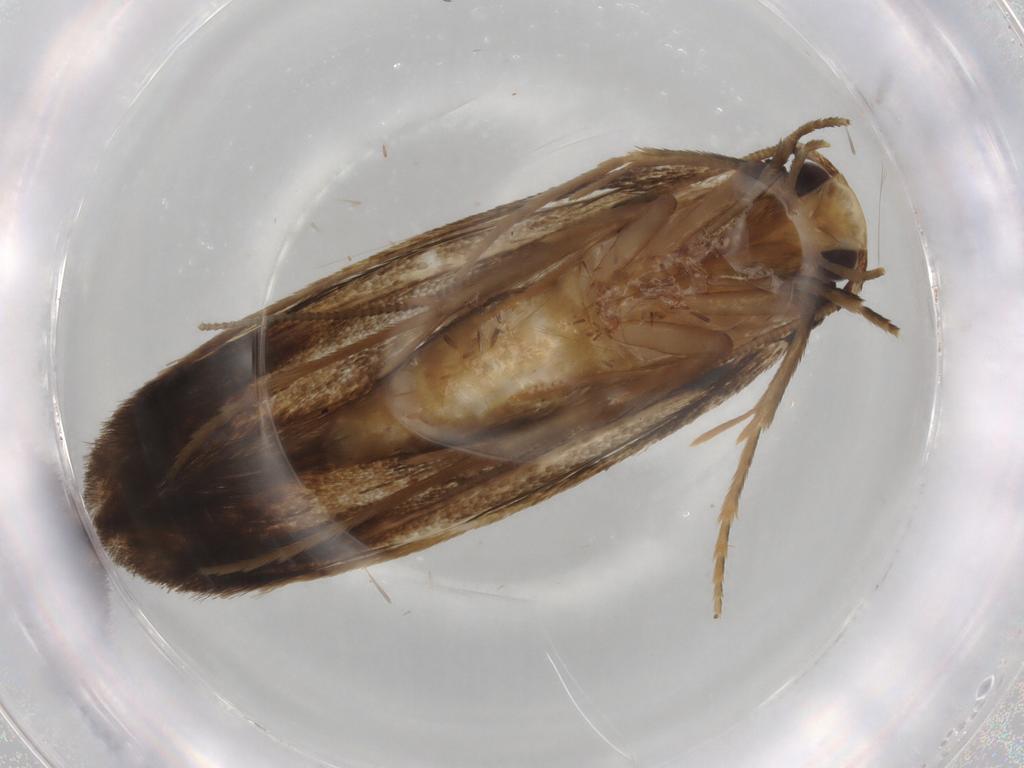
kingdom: Animalia
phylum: Arthropoda
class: Insecta
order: Lepidoptera
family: Tineidae
